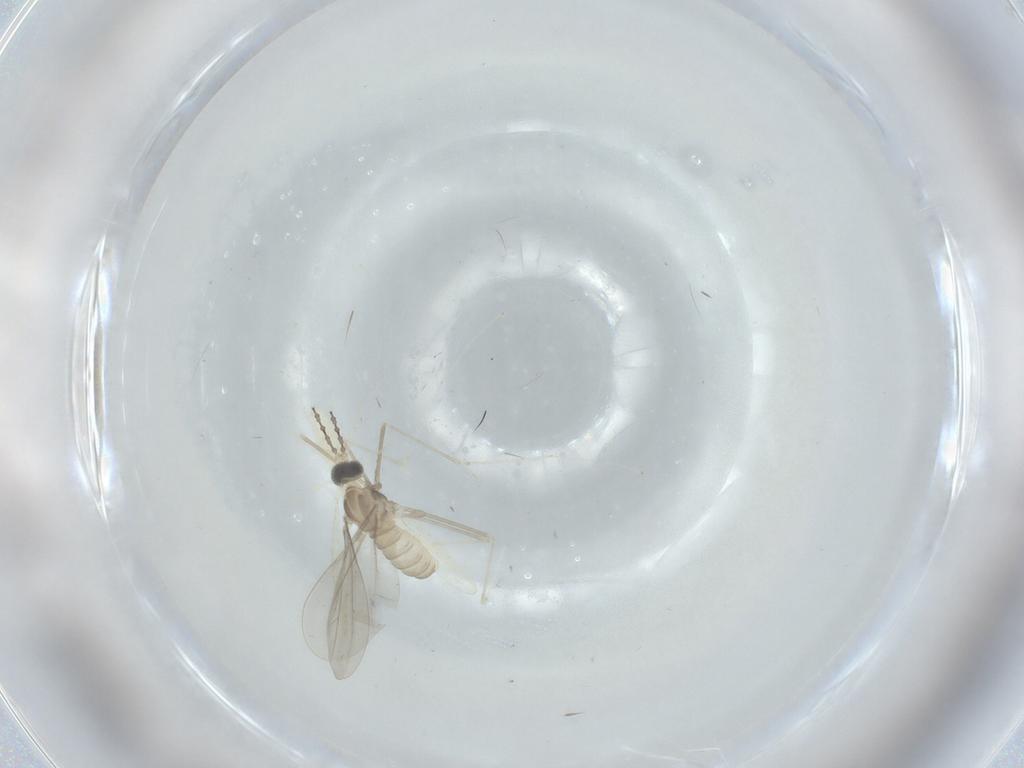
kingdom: Animalia
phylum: Arthropoda
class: Insecta
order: Diptera
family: Cecidomyiidae
